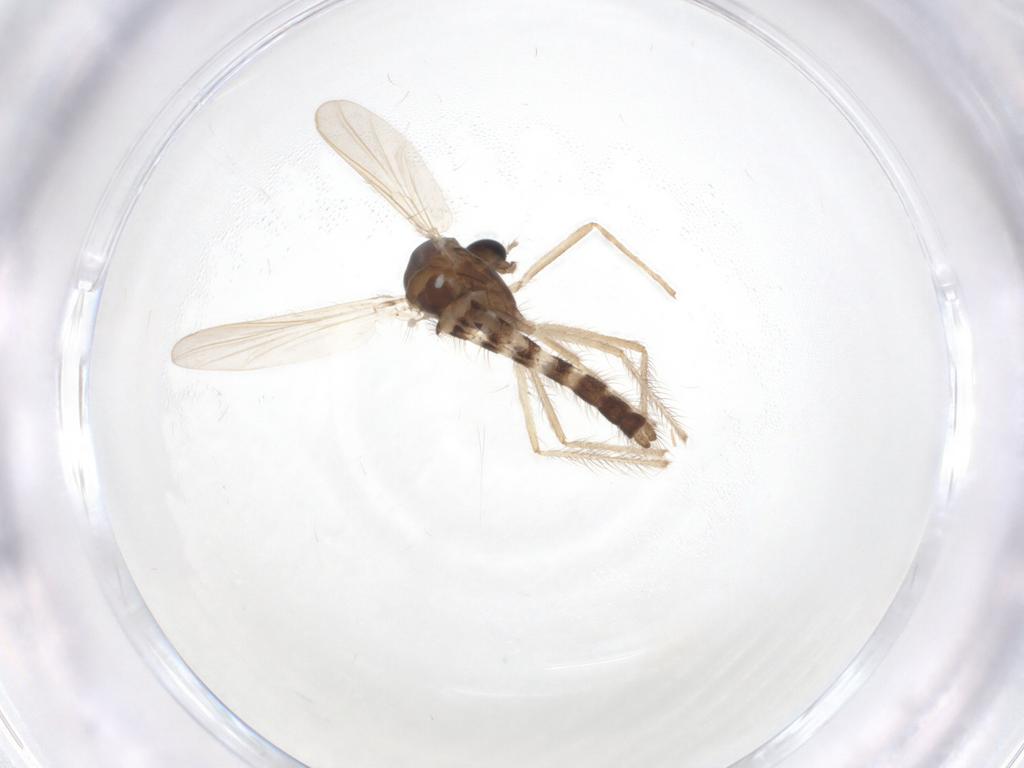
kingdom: Animalia
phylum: Arthropoda
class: Insecta
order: Diptera
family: Chironomidae
